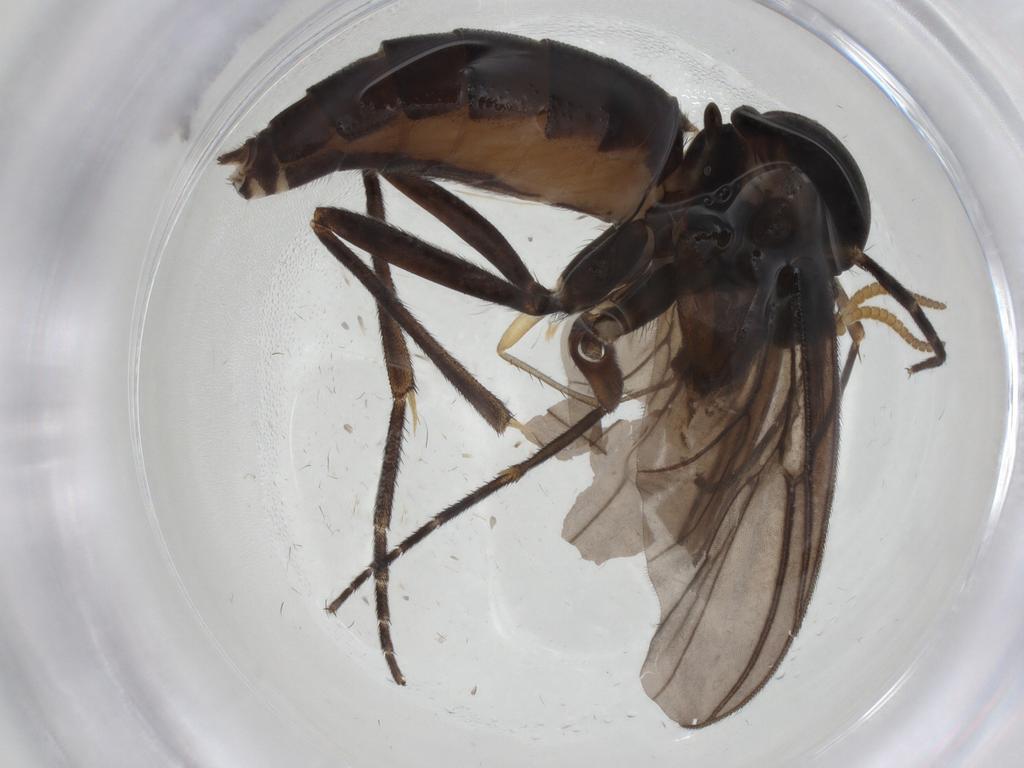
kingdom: Animalia
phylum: Arthropoda
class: Insecta
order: Diptera
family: Mycetophilidae
